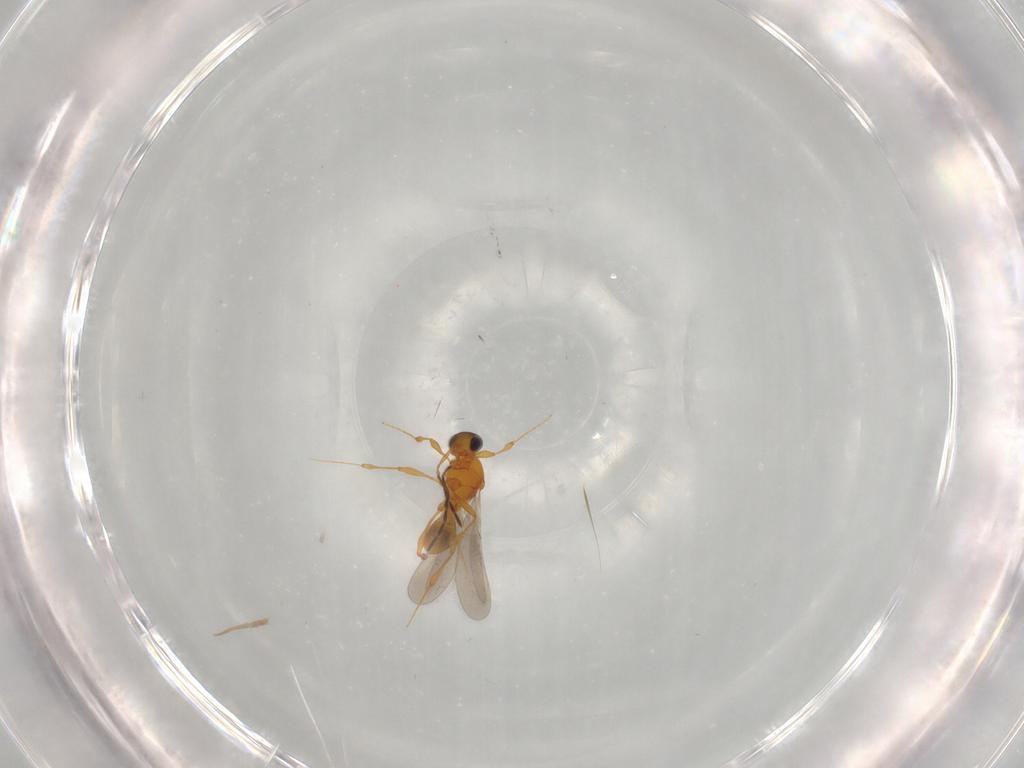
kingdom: Animalia
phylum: Arthropoda
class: Insecta
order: Hymenoptera
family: Platygastridae
